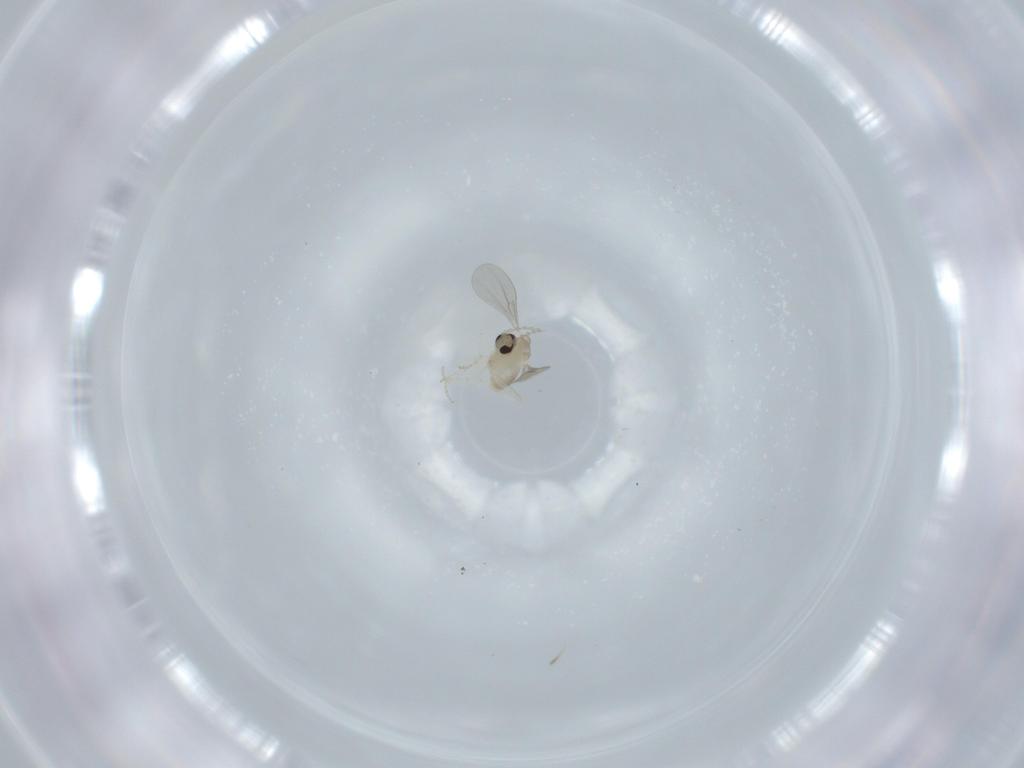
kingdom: Animalia
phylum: Arthropoda
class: Insecta
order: Diptera
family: Cecidomyiidae
